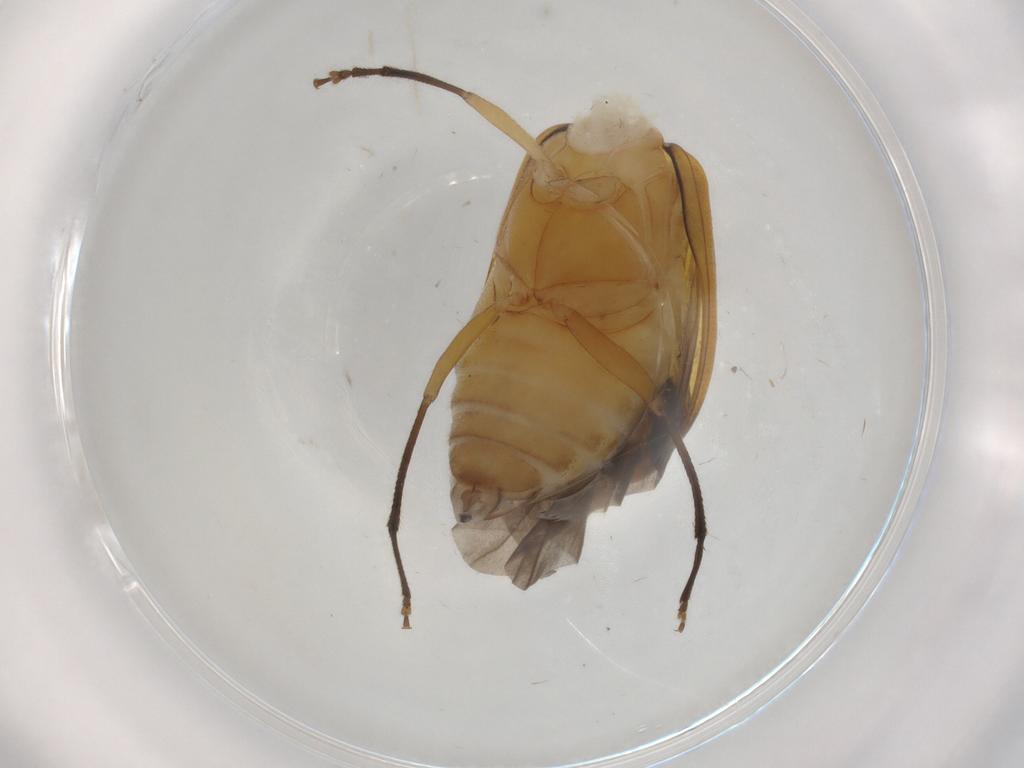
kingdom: Animalia
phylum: Arthropoda
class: Insecta
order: Coleoptera
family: Chrysomelidae
